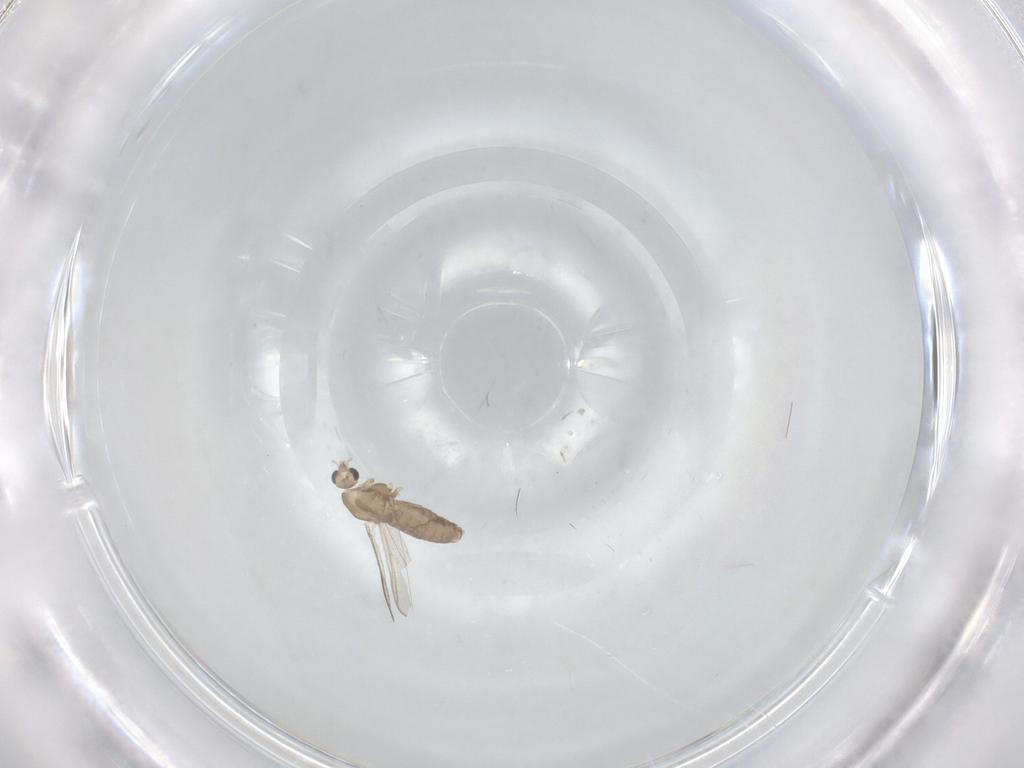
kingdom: Animalia
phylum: Arthropoda
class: Insecta
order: Diptera
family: Chironomidae
